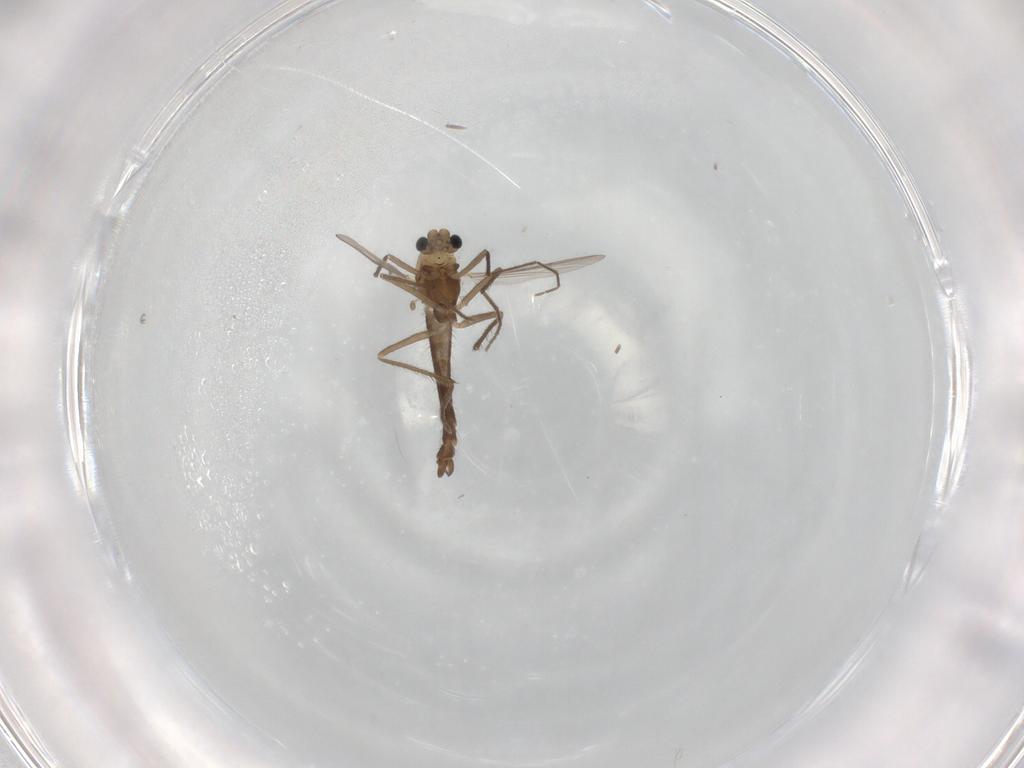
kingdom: Animalia
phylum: Arthropoda
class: Insecta
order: Diptera
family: Chironomidae
